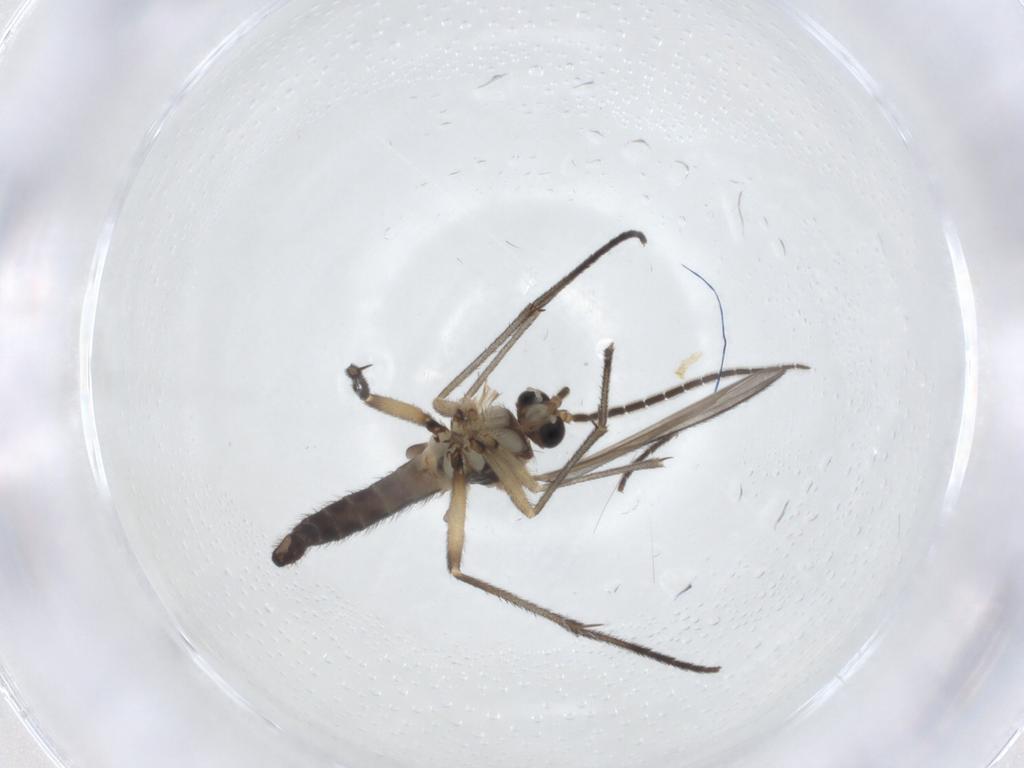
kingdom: Animalia
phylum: Arthropoda
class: Insecta
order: Diptera
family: Sciaridae
